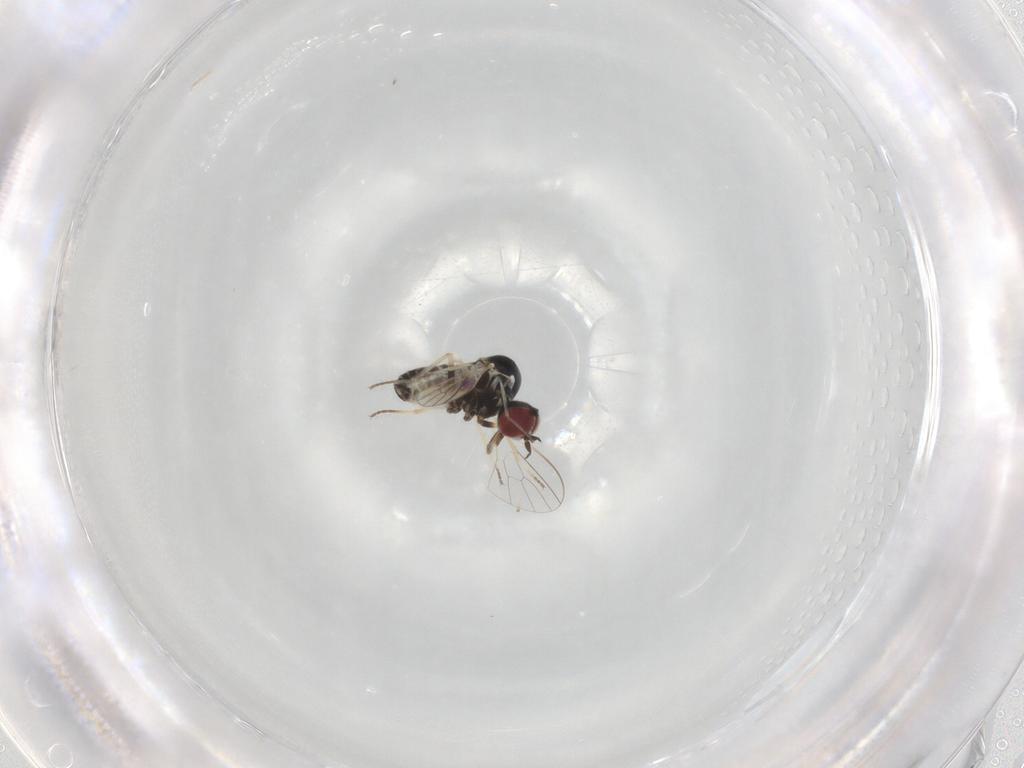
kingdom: Animalia
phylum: Arthropoda
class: Insecta
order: Diptera
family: Bombyliidae
